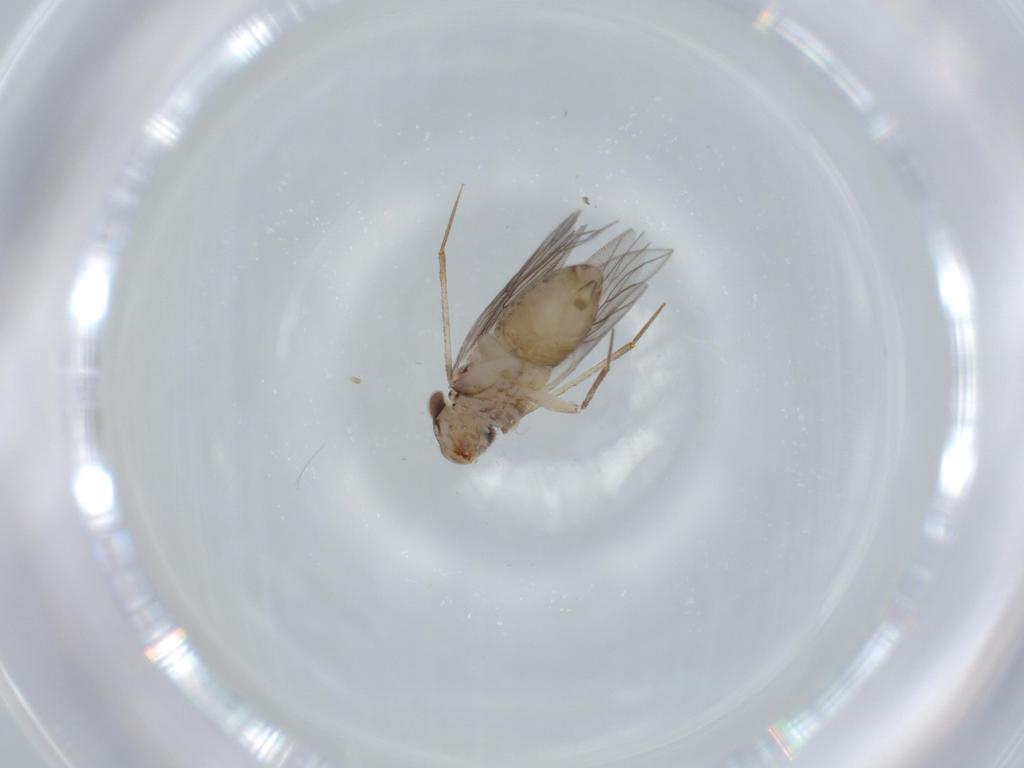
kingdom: Animalia
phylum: Arthropoda
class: Insecta
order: Psocodea
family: Lepidopsocidae
